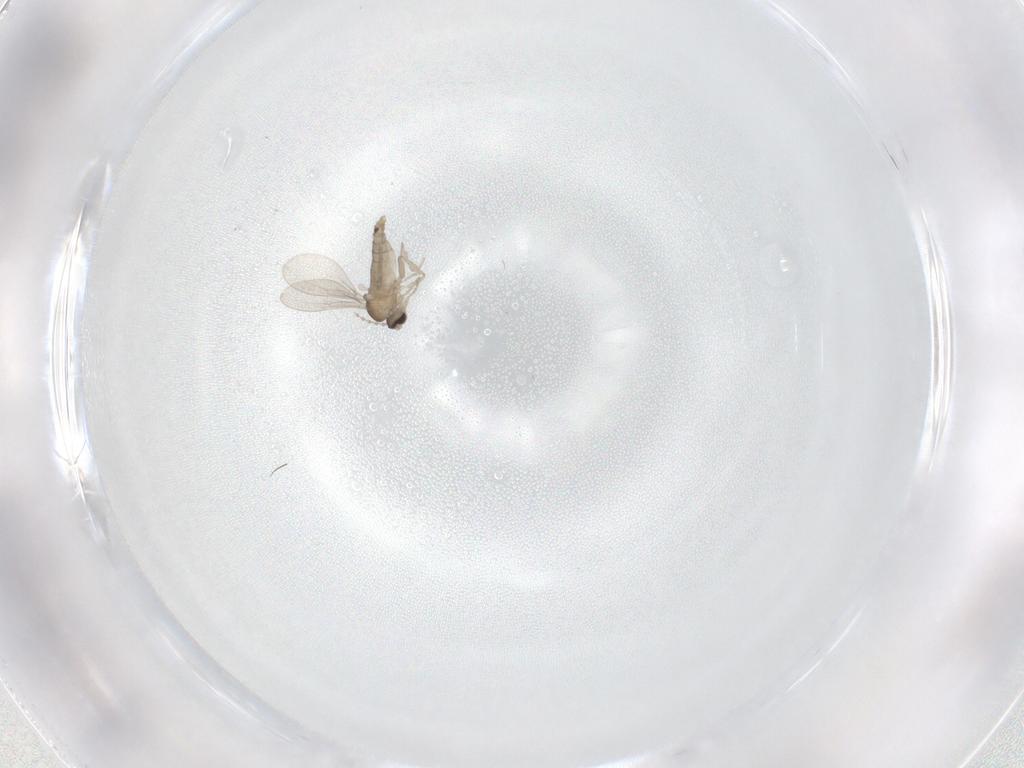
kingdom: Animalia
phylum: Arthropoda
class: Insecta
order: Diptera
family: Cecidomyiidae
